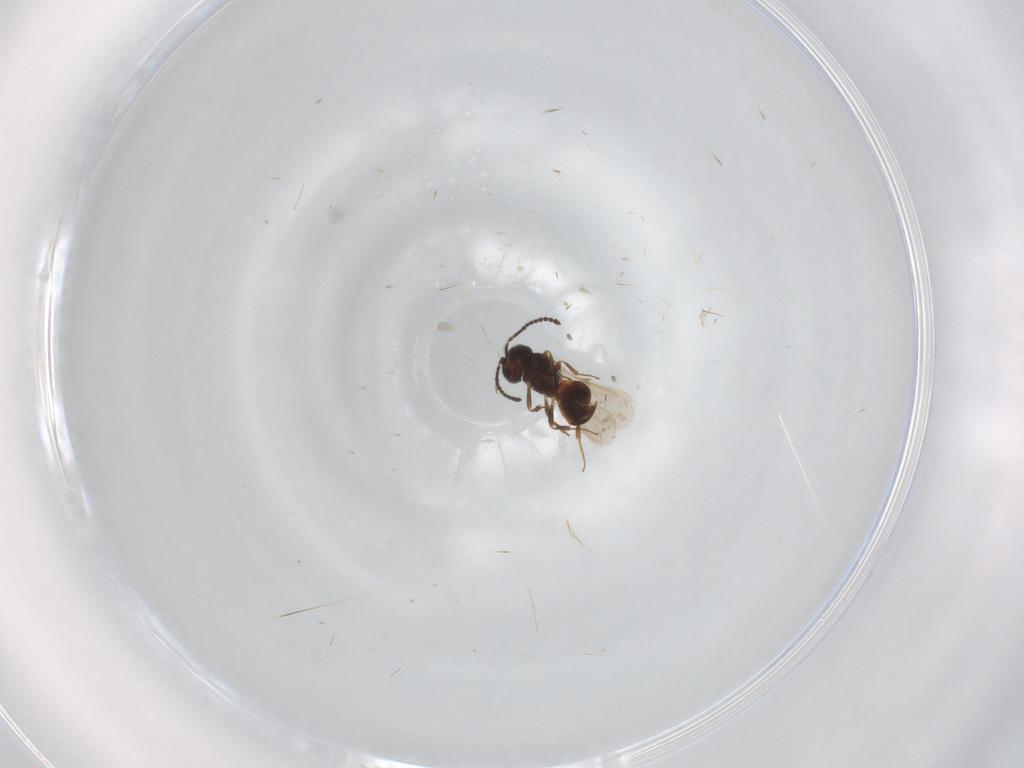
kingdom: Animalia
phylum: Arthropoda
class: Insecta
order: Hymenoptera
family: Scelionidae
